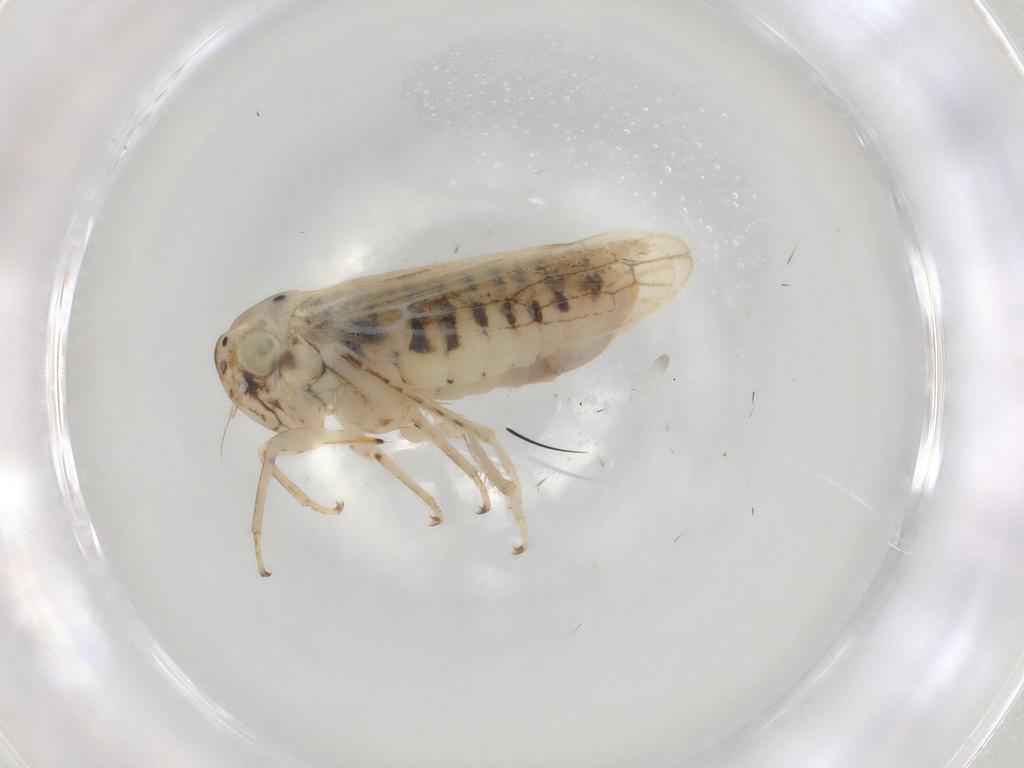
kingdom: Animalia
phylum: Arthropoda
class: Insecta
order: Hemiptera
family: Cicadellidae
